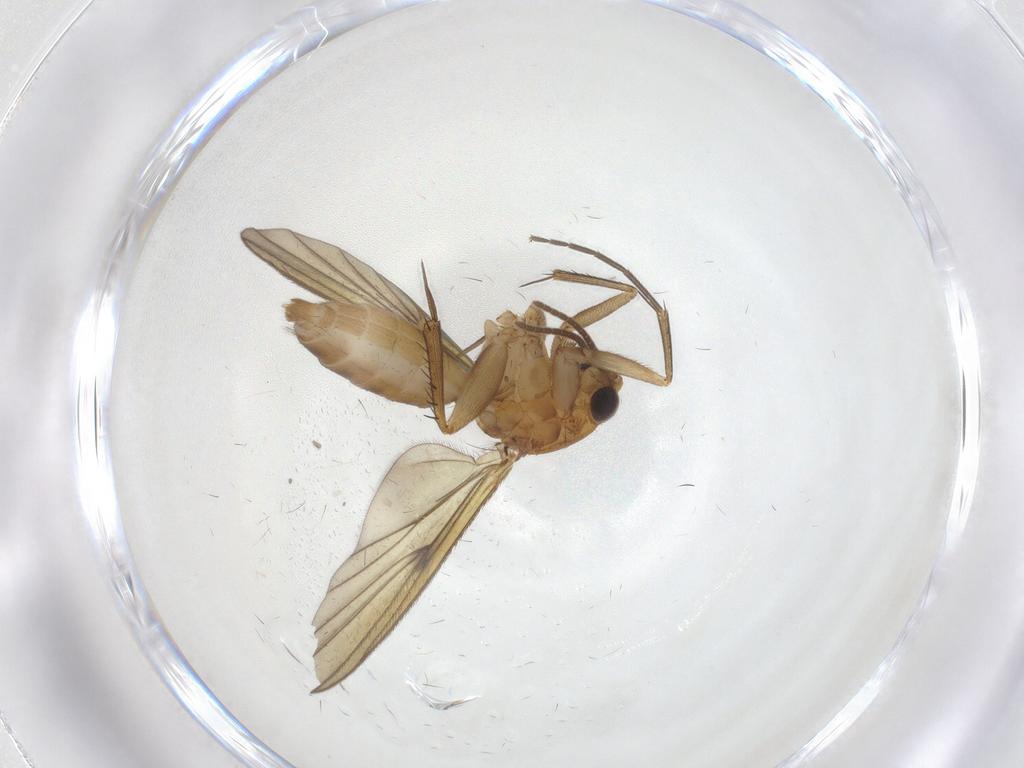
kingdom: Animalia
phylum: Arthropoda
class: Insecta
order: Diptera
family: Mycetophilidae
